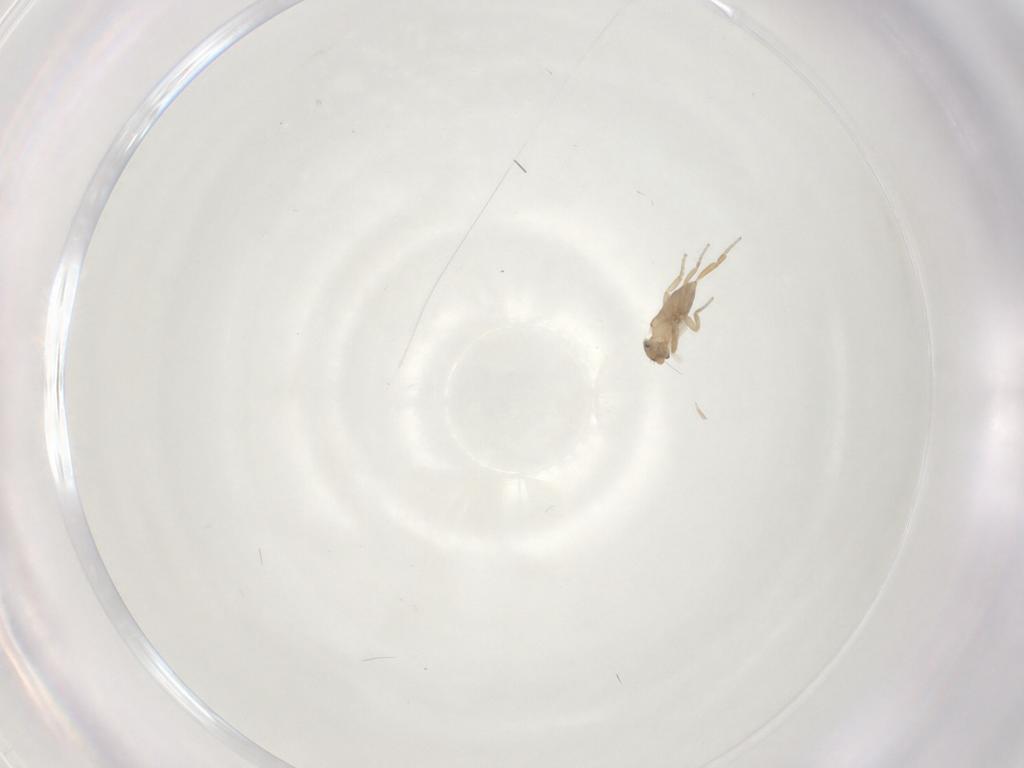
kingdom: Animalia
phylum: Arthropoda
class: Insecta
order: Diptera
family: Phoridae
